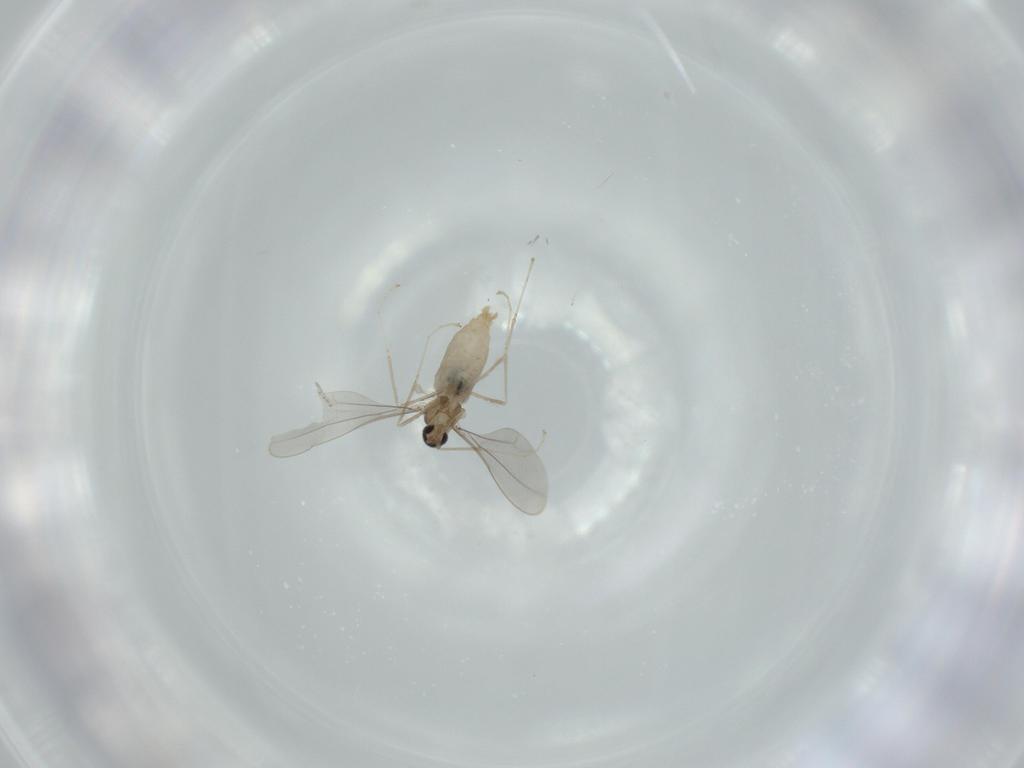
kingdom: Animalia
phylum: Arthropoda
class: Insecta
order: Diptera
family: Cecidomyiidae
